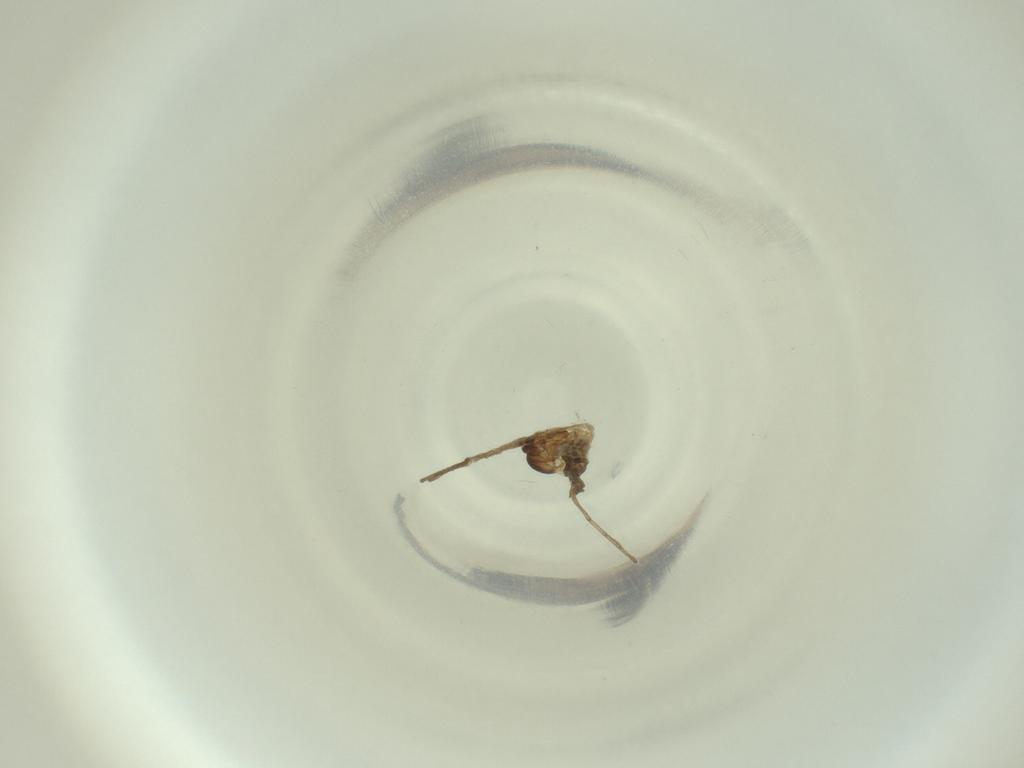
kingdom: Animalia
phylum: Arthropoda
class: Insecta
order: Diptera
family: Cecidomyiidae
